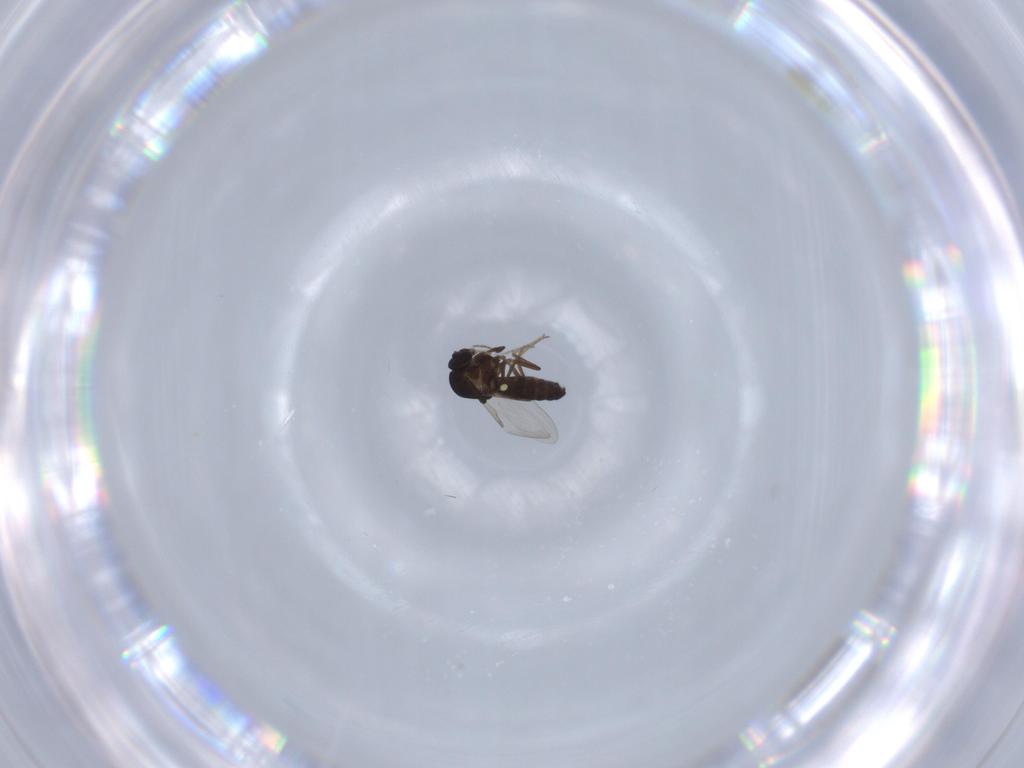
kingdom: Animalia
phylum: Arthropoda
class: Insecta
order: Diptera
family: Ceratopogonidae
